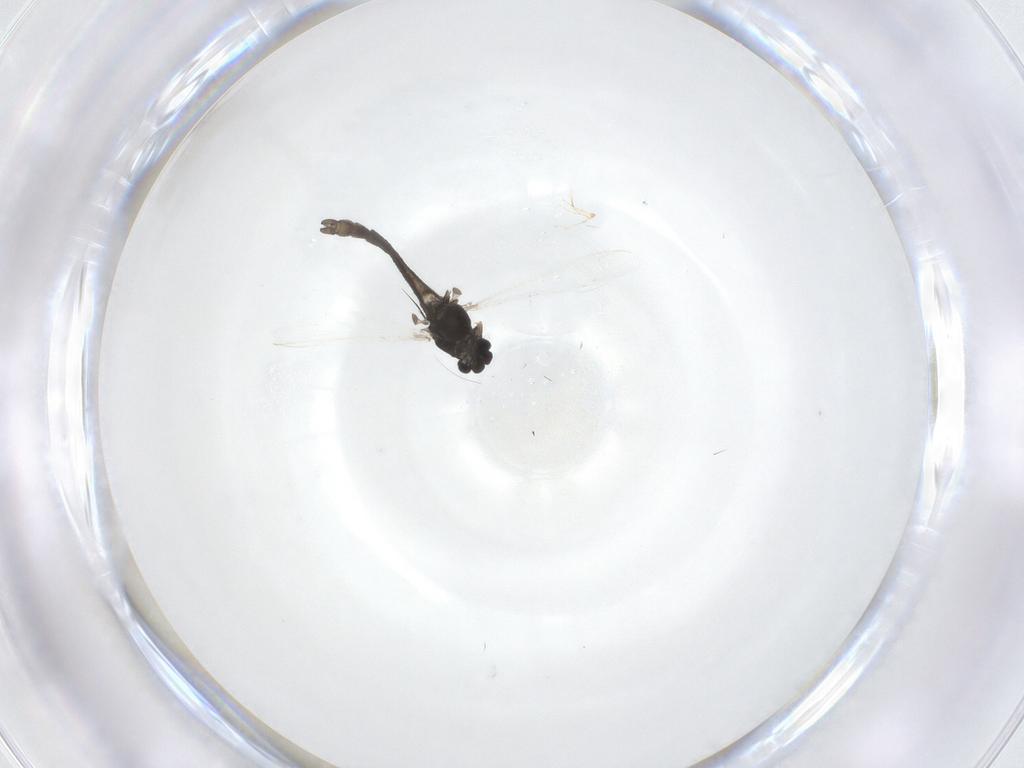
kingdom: Animalia
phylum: Arthropoda
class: Insecta
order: Diptera
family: Chironomidae
